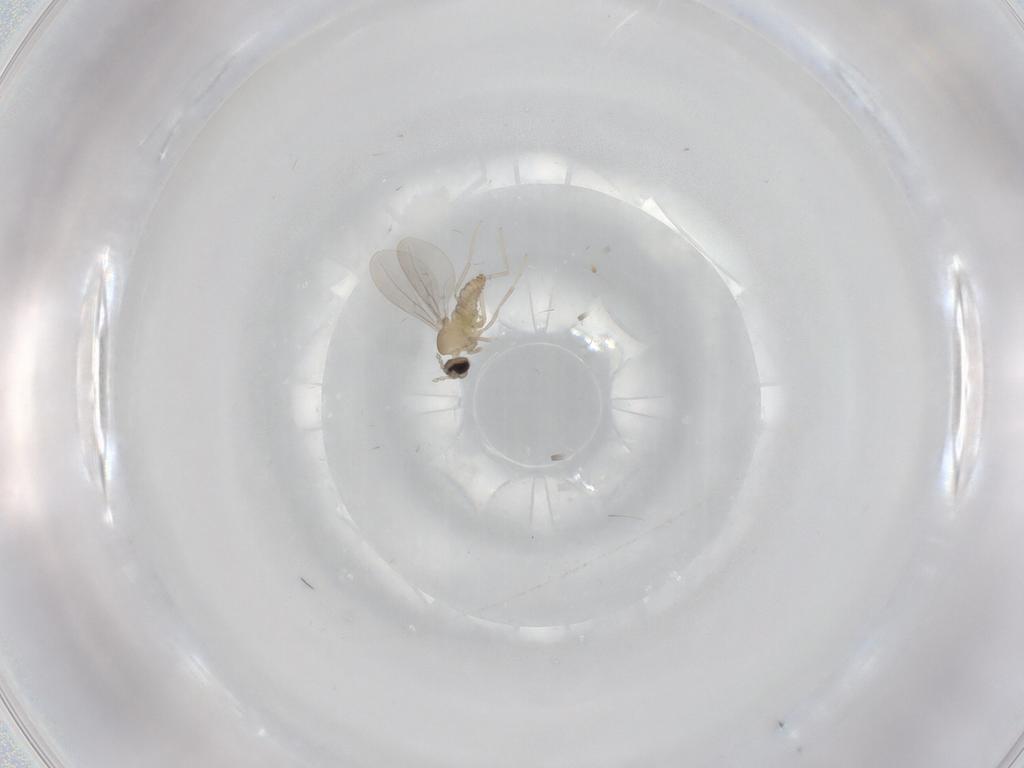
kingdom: Animalia
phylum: Arthropoda
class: Insecta
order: Diptera
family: Cecidomyiidae
